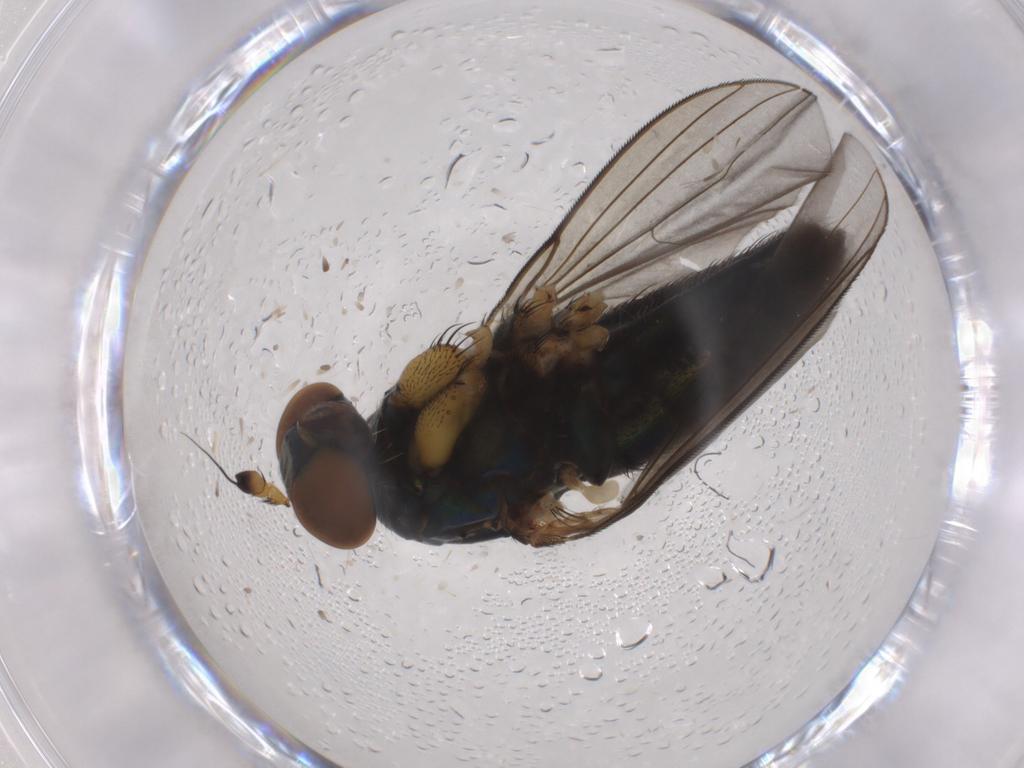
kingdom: Animalia
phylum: Arthropoda
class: Insecta
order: Diptera
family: Dolichopodidae
